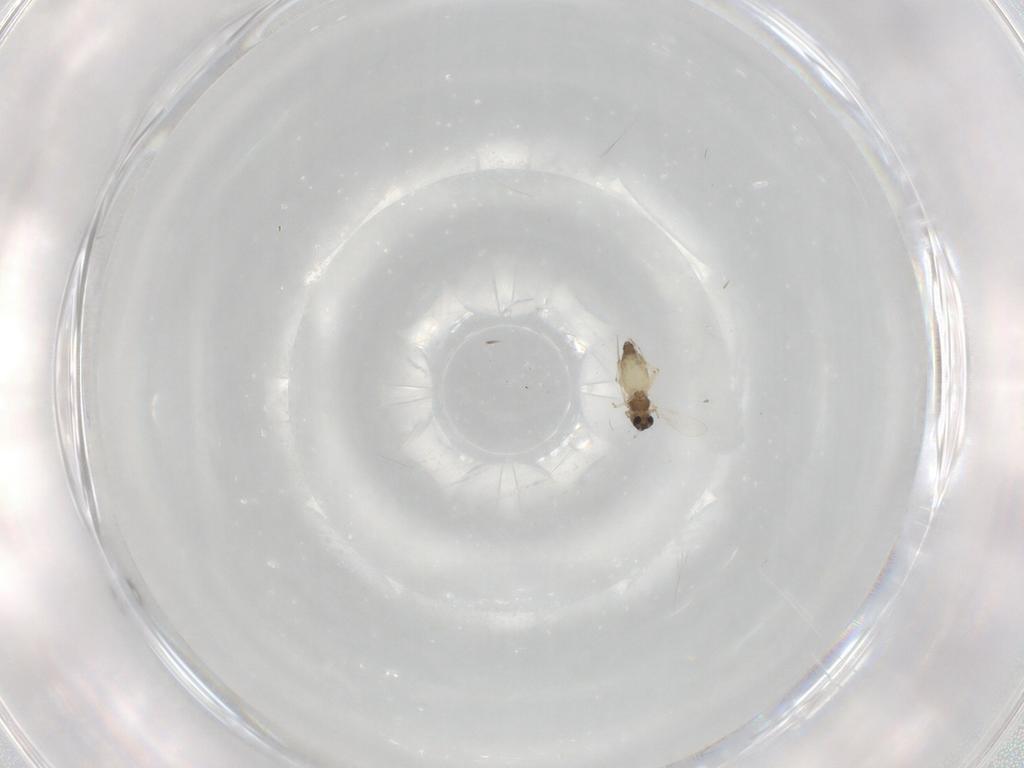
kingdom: Animalia
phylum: Arthropoda
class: Insecta
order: Diptera
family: Chironomidae
